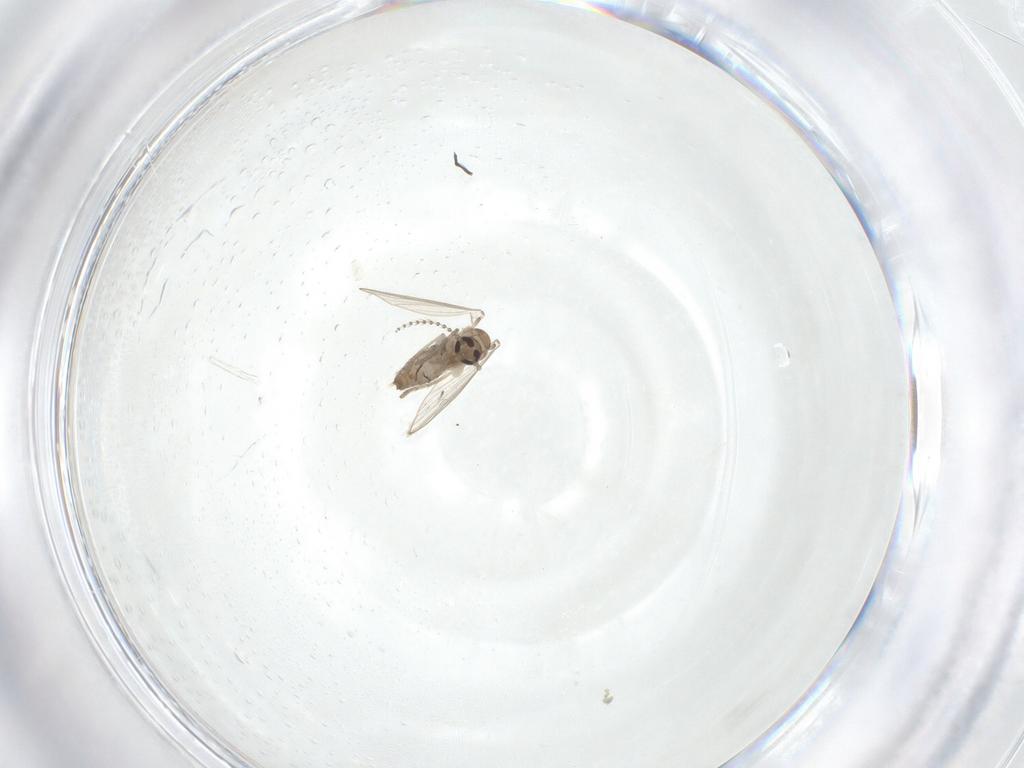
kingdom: Animalia
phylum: Arthropoda
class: Insecta
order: Diptera
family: Psychodidae
